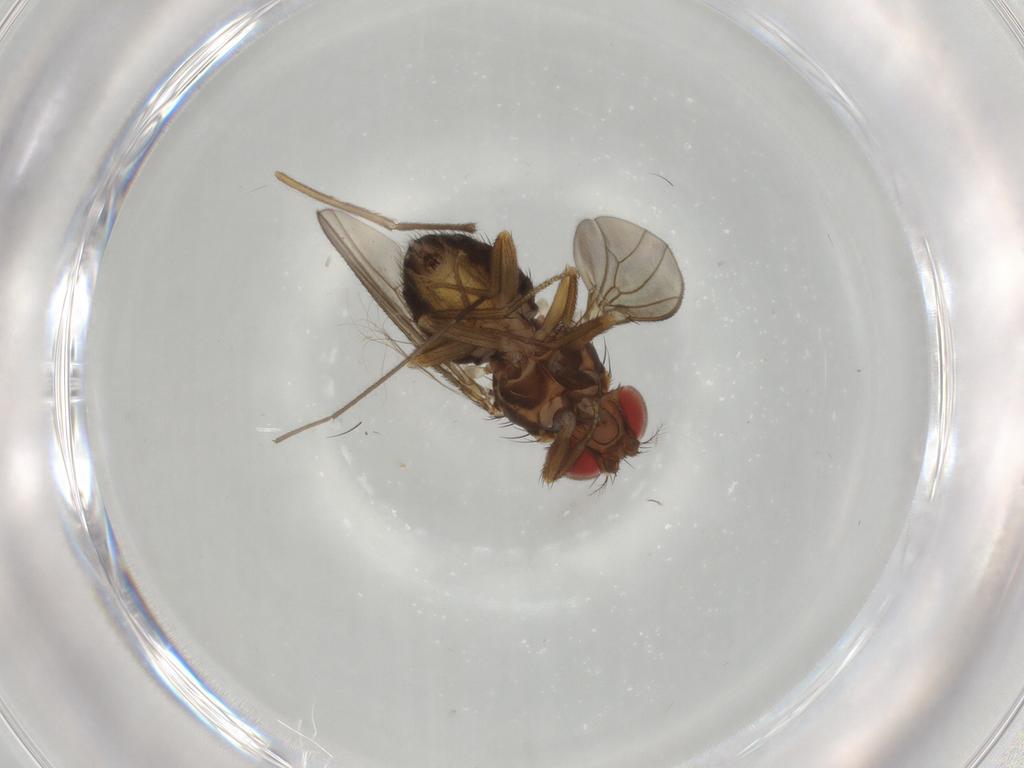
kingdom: Animalia
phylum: Arthropoda
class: Insecta
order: Diptera
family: Drosophilidae
